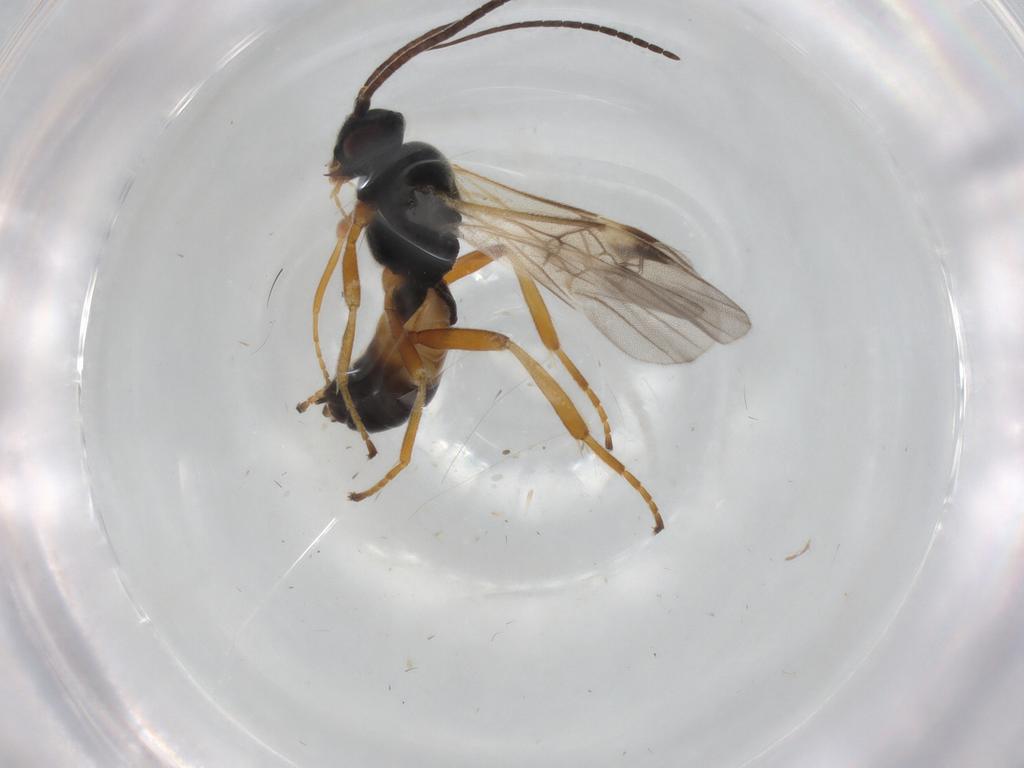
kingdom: Animalia
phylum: Arthropoda
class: Insecta
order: Hymenoptera
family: Braconidae
